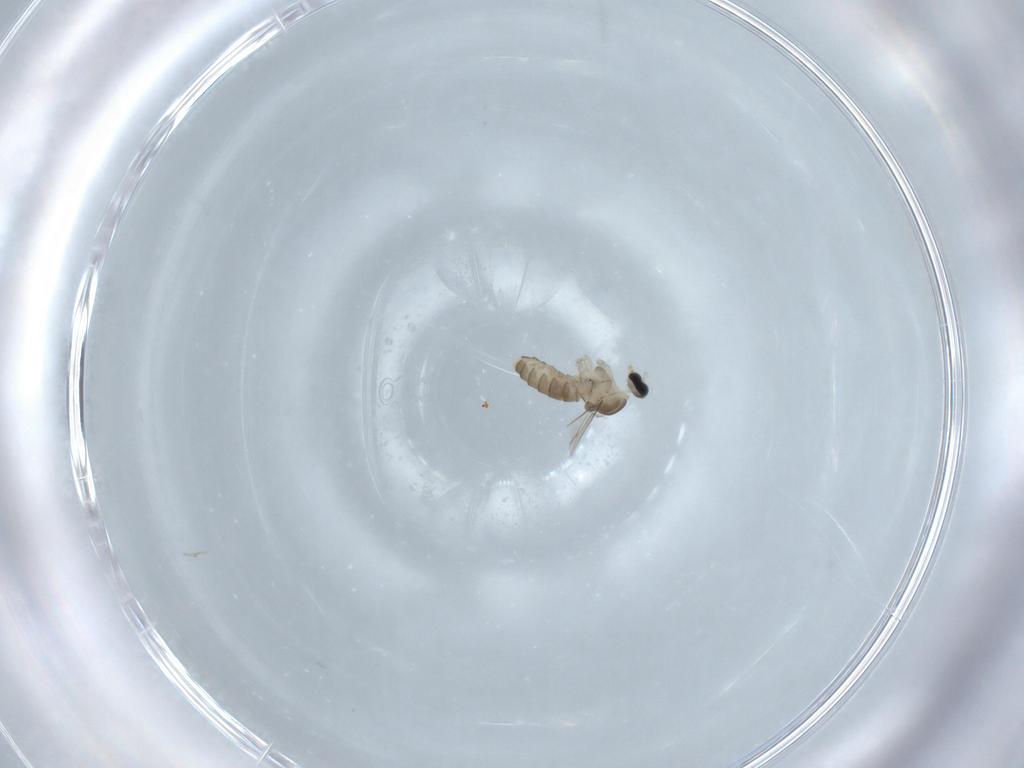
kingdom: Animalia
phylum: Arthropoda
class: Insecta
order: Diptera
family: Cecidomyiidae
